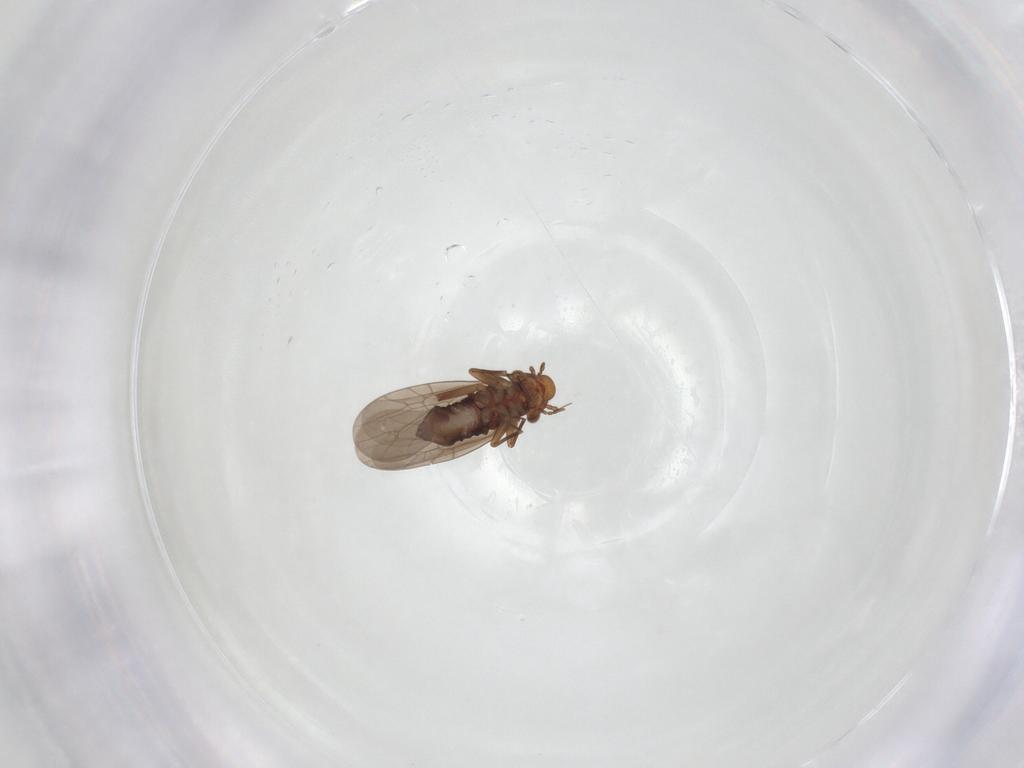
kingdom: Animalia
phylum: Arthropoda
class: Insecta
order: Psocodea
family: Lepidopsocidae
